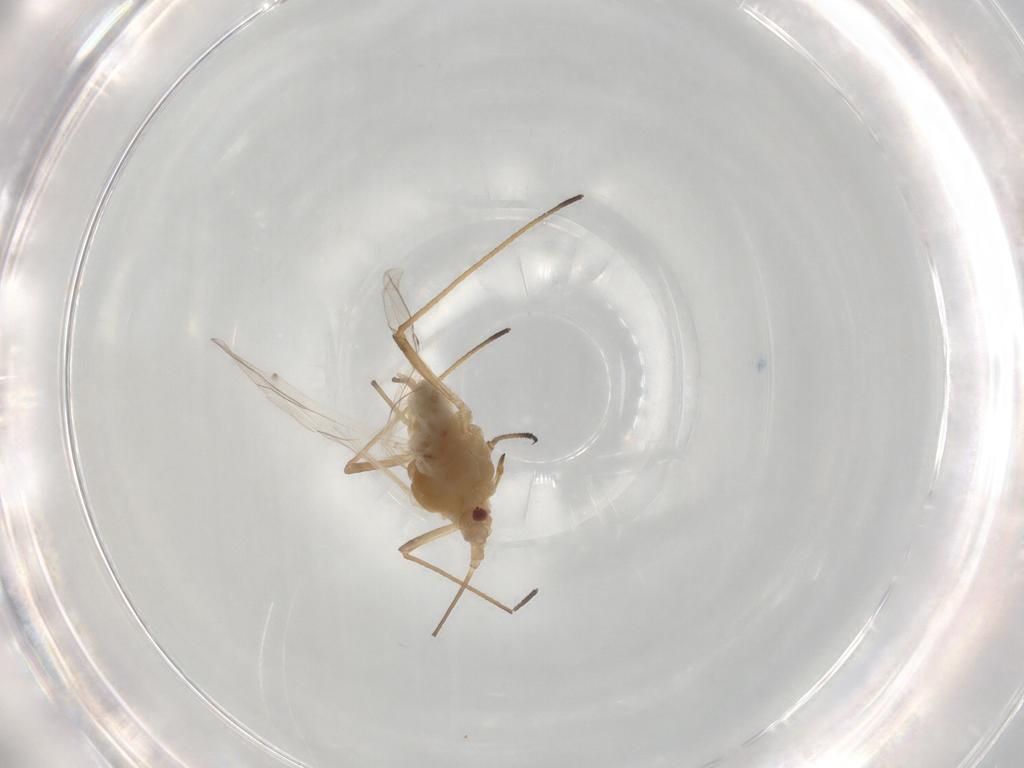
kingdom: Animalia
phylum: Arthropoda
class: Insecta
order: Hemiptera
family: Aphididae
